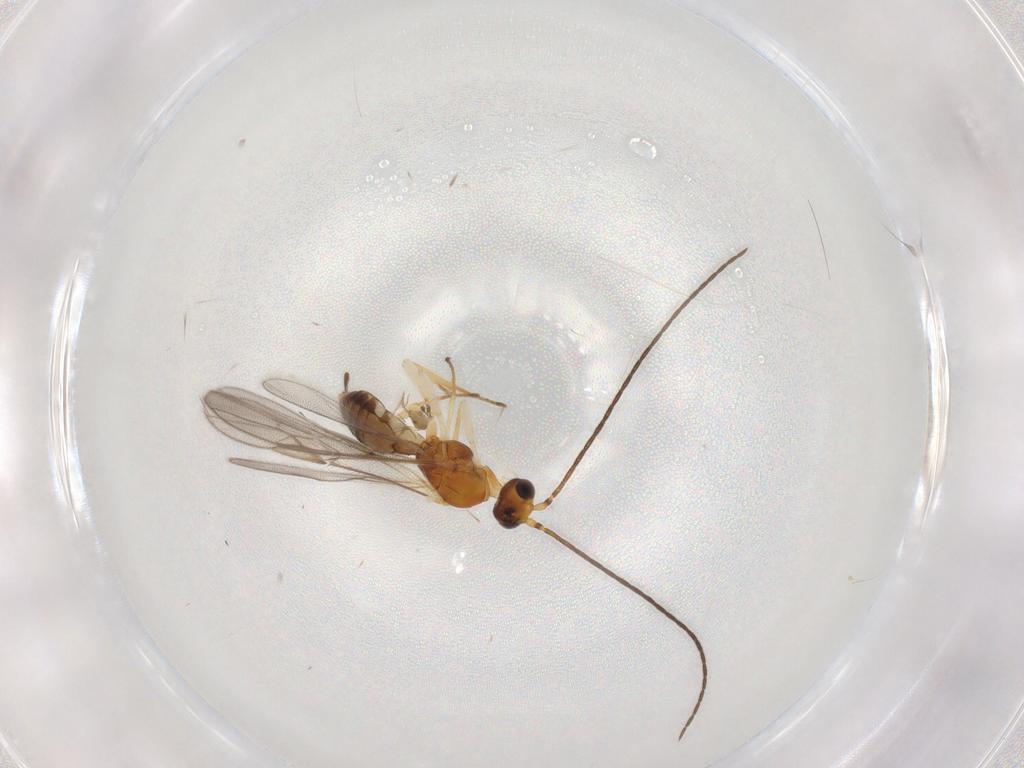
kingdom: Animalia
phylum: Arthropoda
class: Insecta
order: Hymenoptera
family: Braconidae
